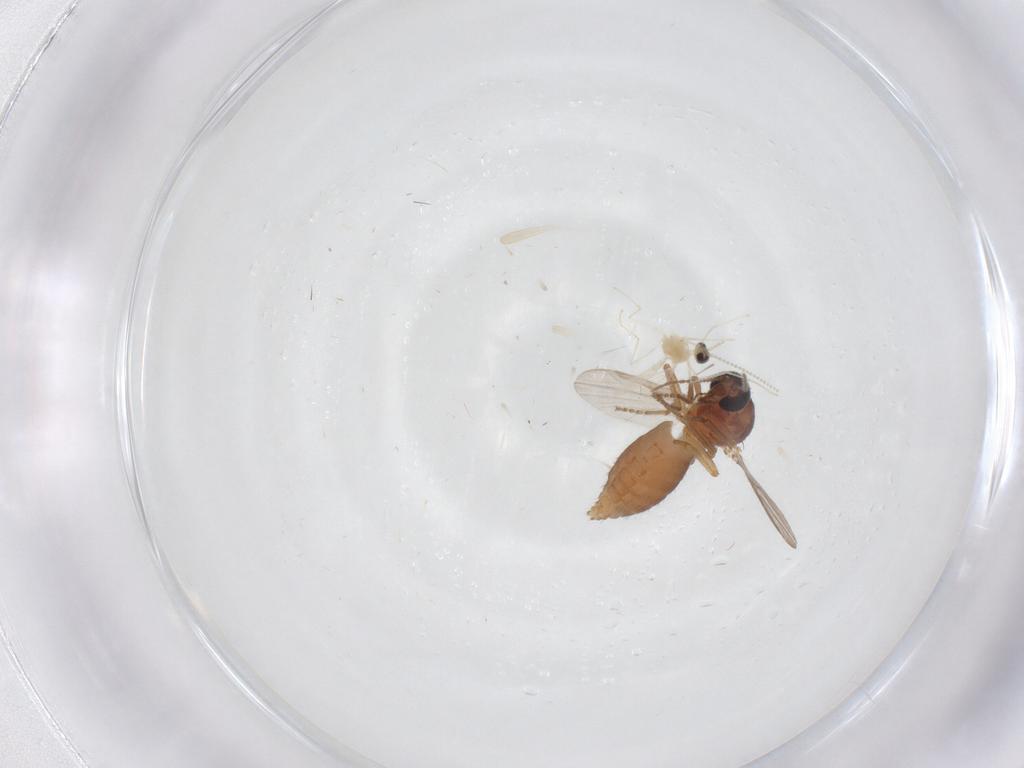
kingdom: Animalia
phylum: Arthropoda
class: Insecta
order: Diptera
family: Ceratopogonidae
